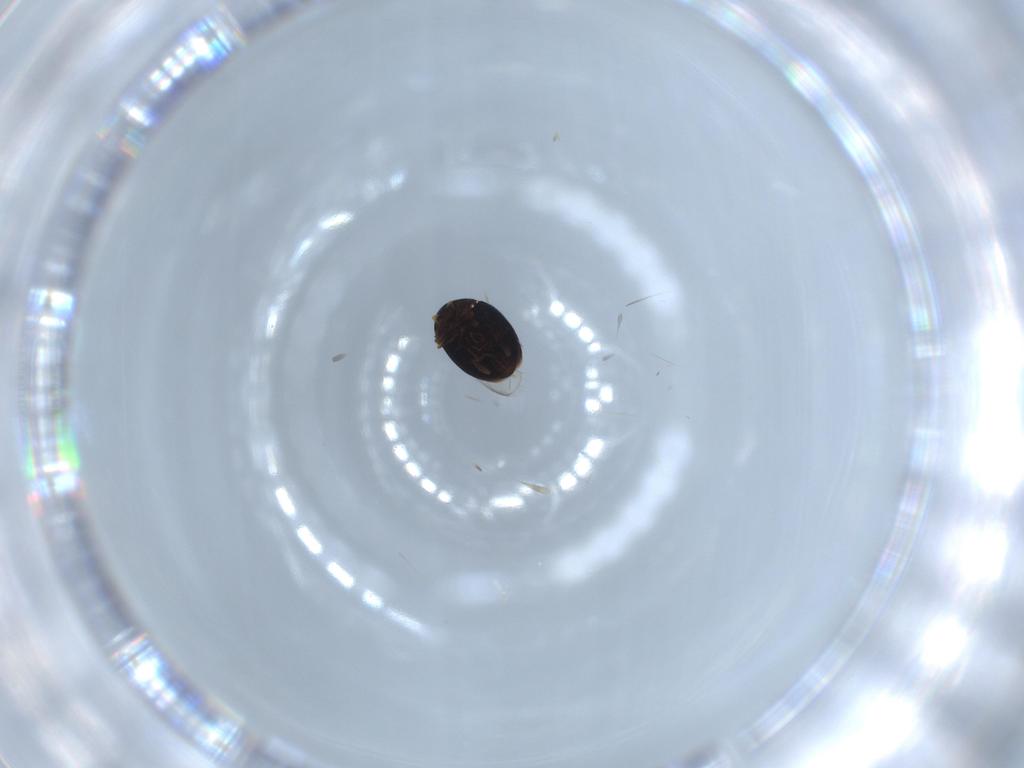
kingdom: Animalia
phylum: Arthropoda
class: Insecta
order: Coleoptera
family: Corylophidae
